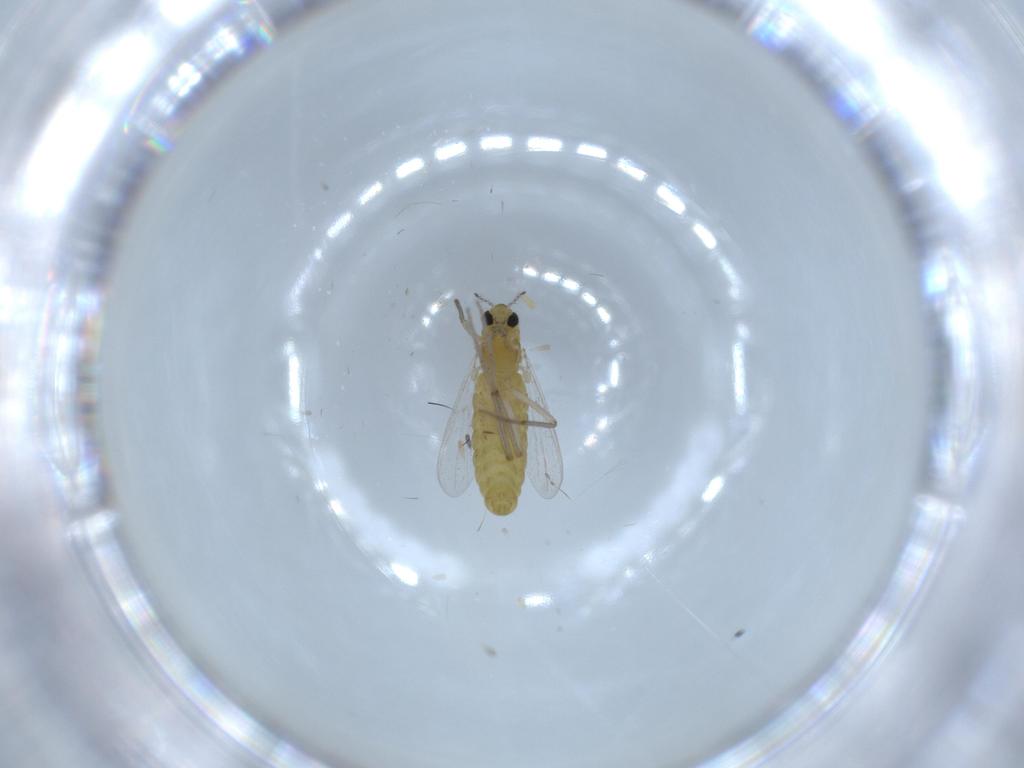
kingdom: Animalia
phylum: Arthropoda
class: Insecta
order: Diptera
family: Chironomidae
